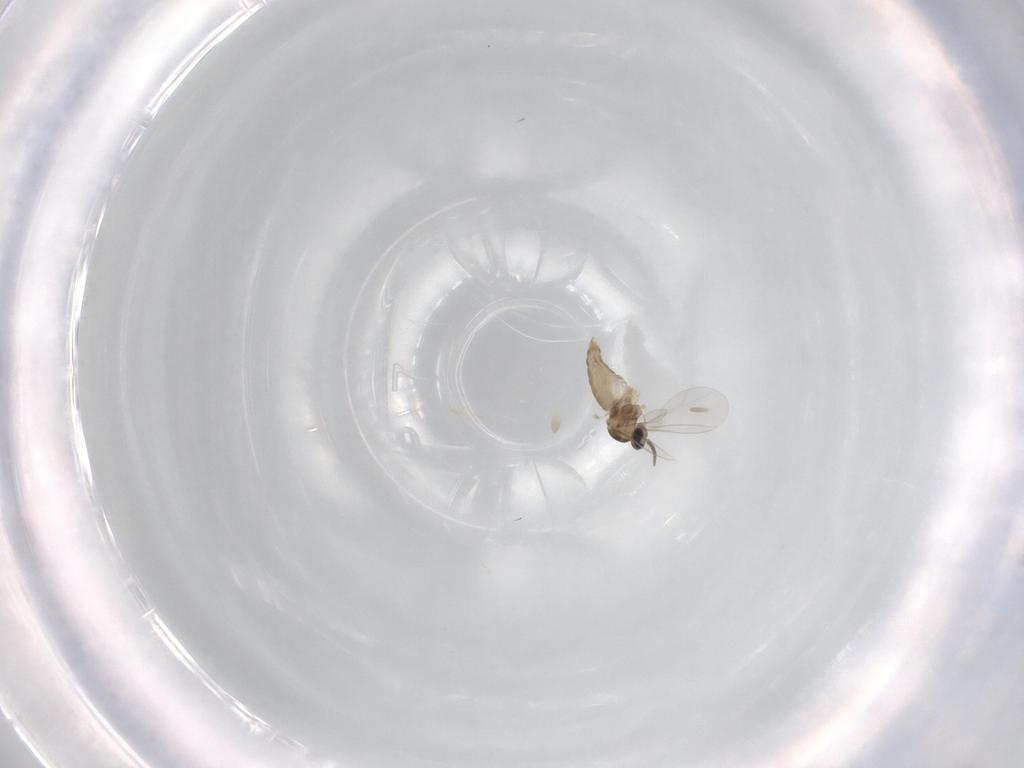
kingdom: Animalia
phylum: Arthropoda
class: Insecta
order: Diptera
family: Cecidomyiidae
